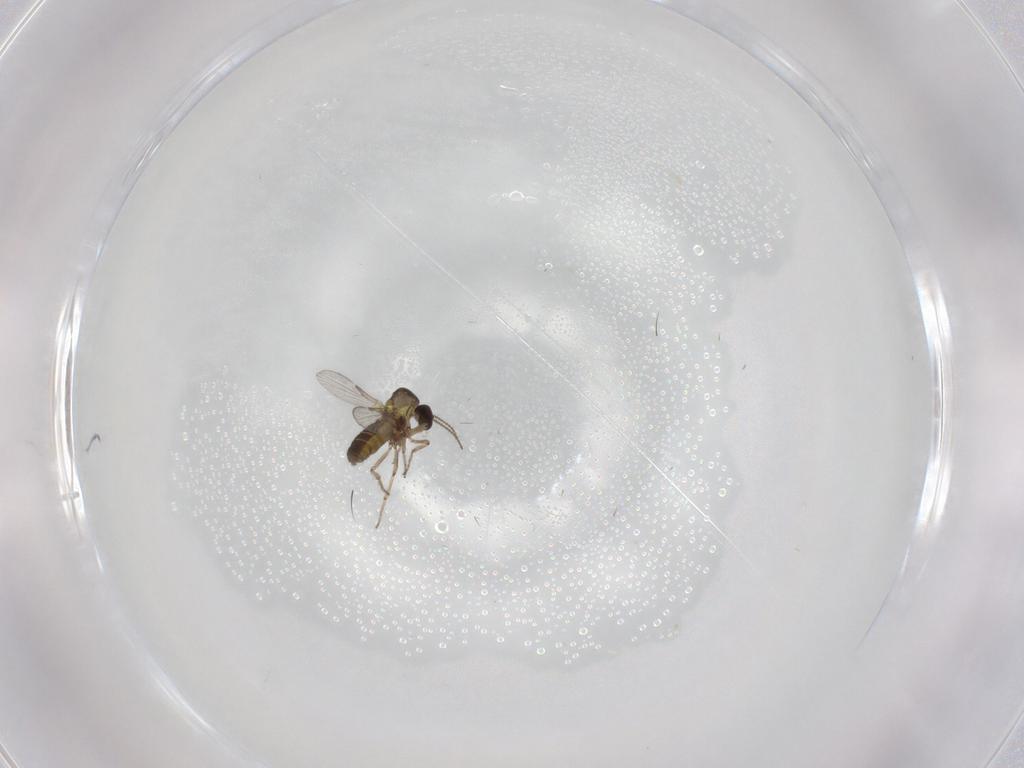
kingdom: Animalia
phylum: Arthropoda
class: Insecta
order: Diptera
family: Ceratopogonidae
